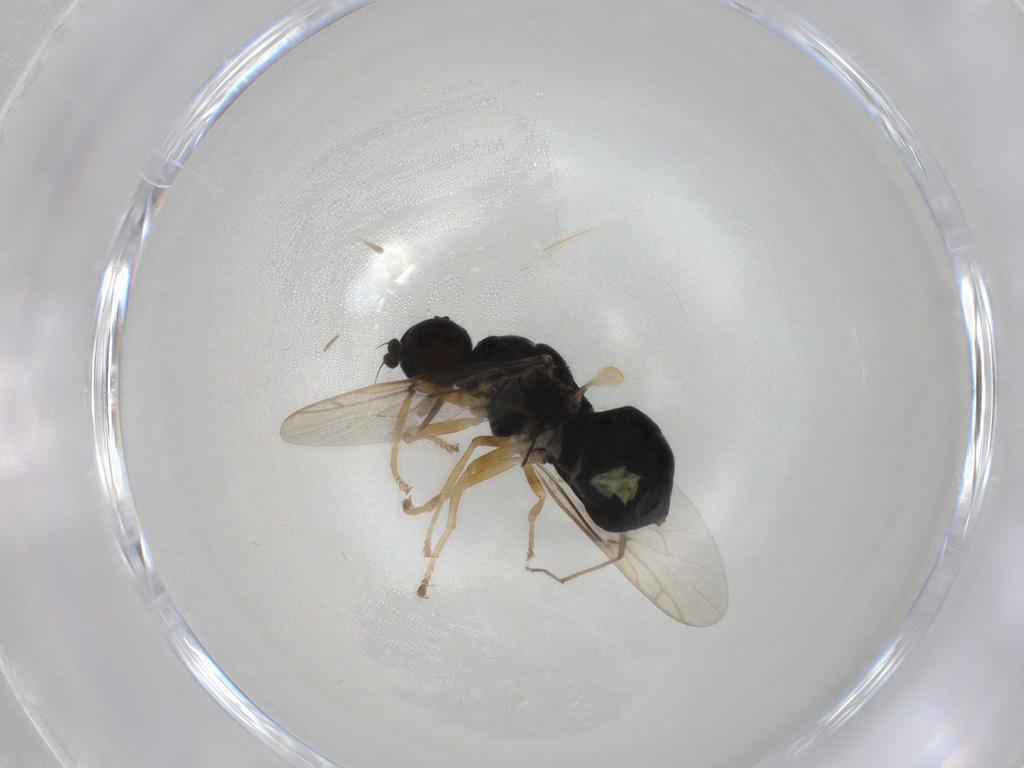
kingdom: Animalia
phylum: Arthropoda
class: Insecta
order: Diptera
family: Stratiomyidae
